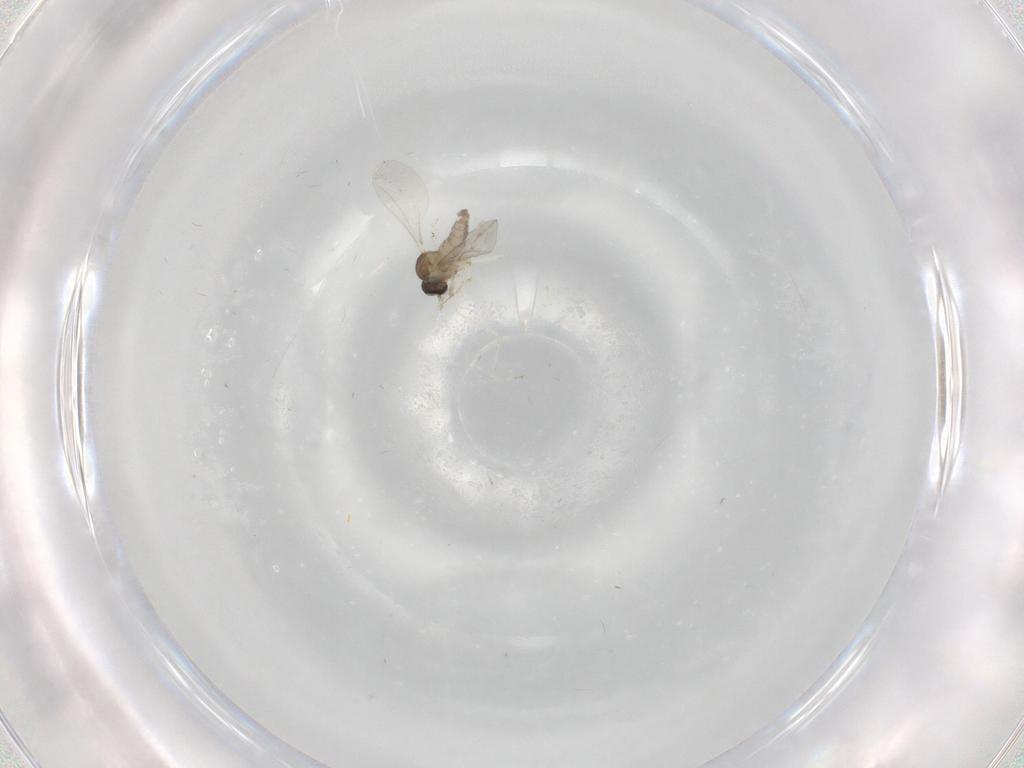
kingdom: Animalia
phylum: Arthropoda
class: Insecta
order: Diptera
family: Cecidomyiidae
